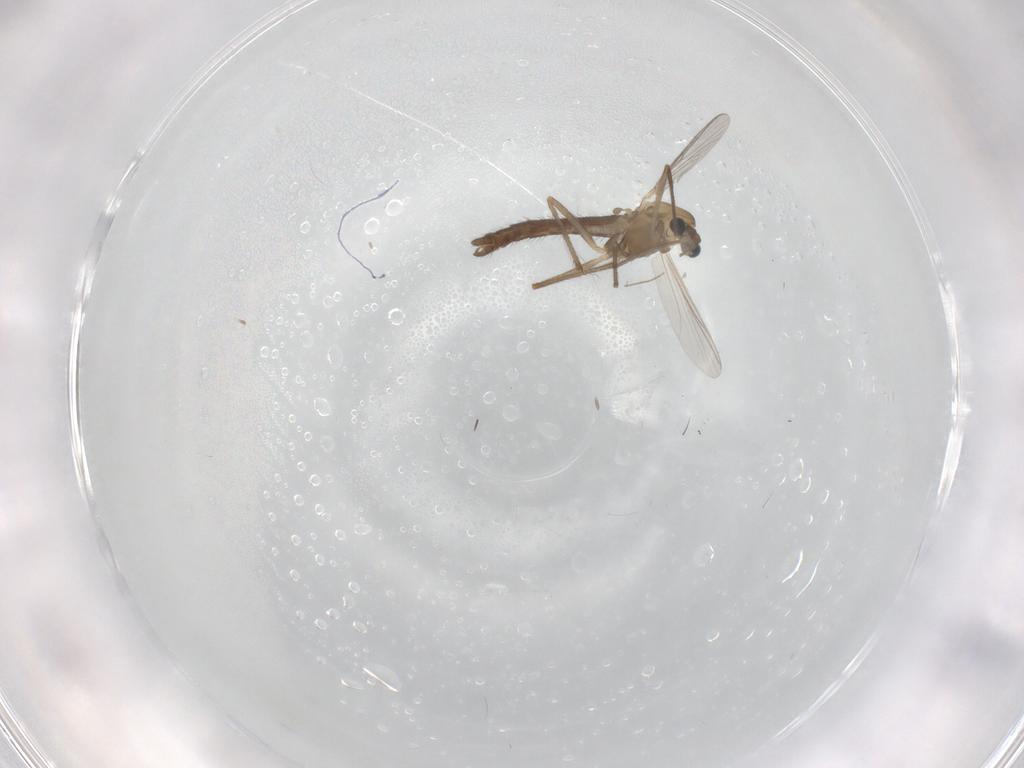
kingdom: Animalia
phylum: Arthropoda
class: Insecta
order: Diptera
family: Chironomidae
